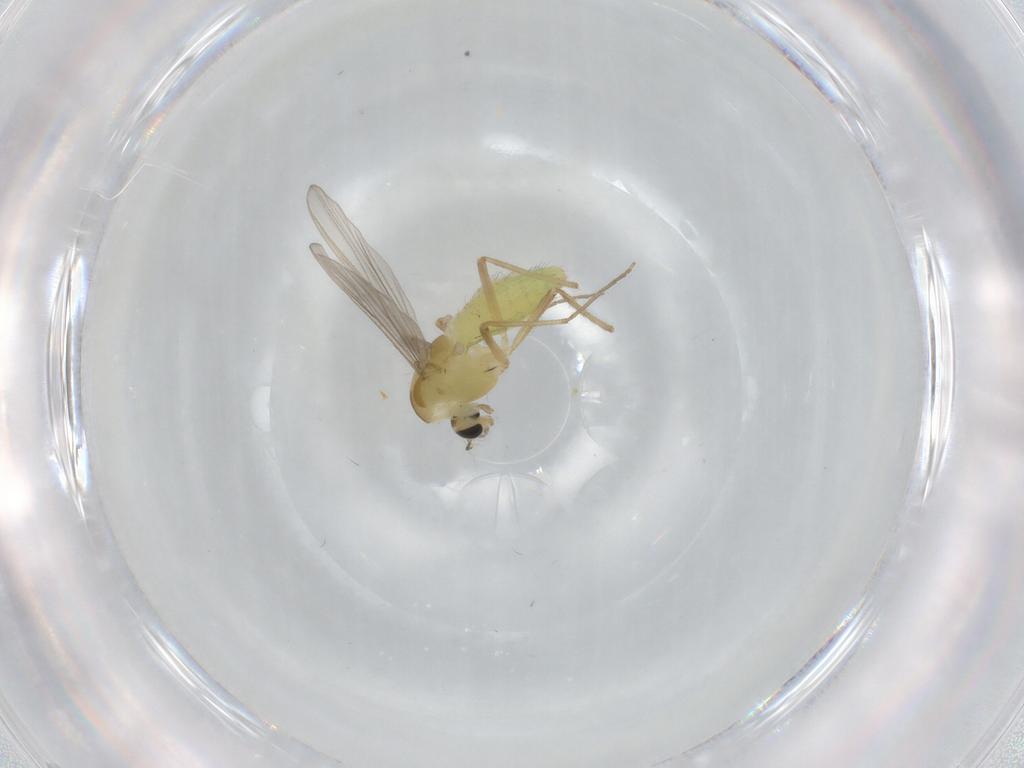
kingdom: Animalia
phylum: Arthropoda
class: Insecta
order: Diptera
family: Chironomidae
